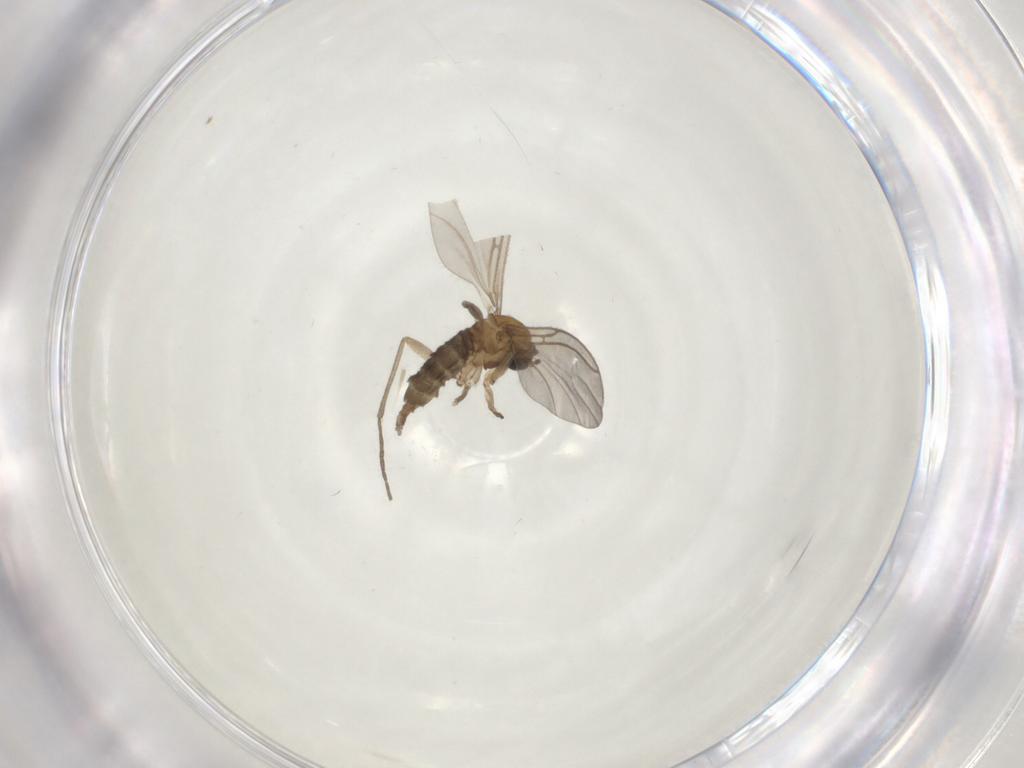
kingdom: Animalia
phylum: Arthropoda
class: Insecta
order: Diptera
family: Sciaridae
